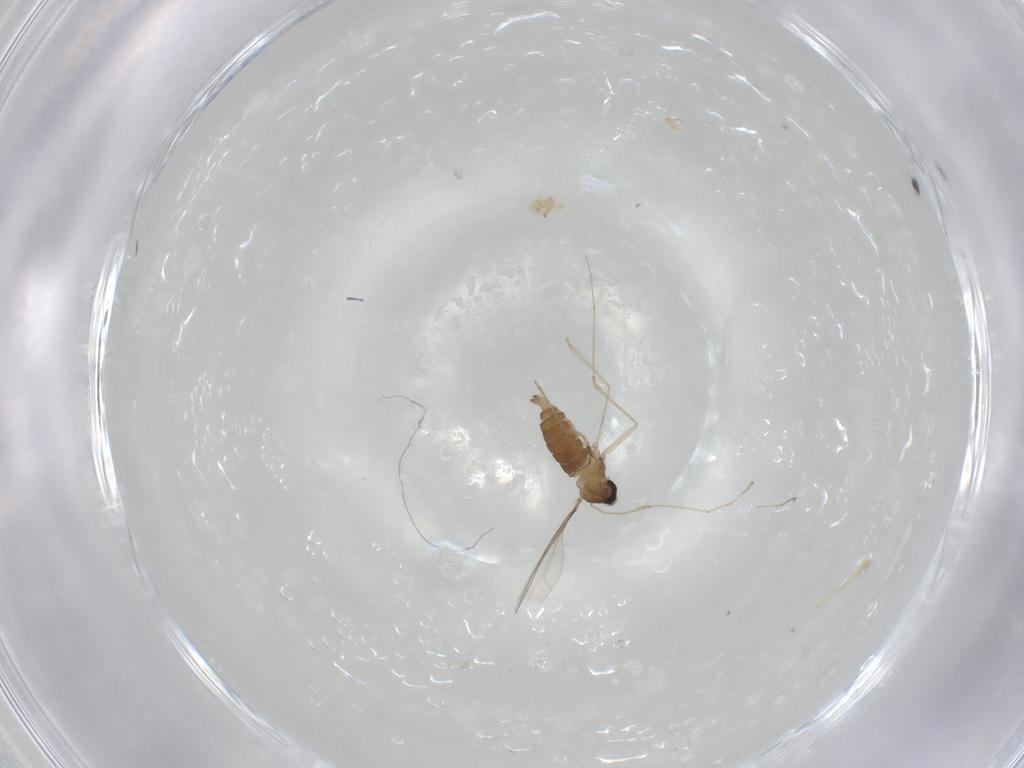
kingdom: Animalia
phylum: Arthropoda
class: Insecta
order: Diptera
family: Cecidomyiidae
